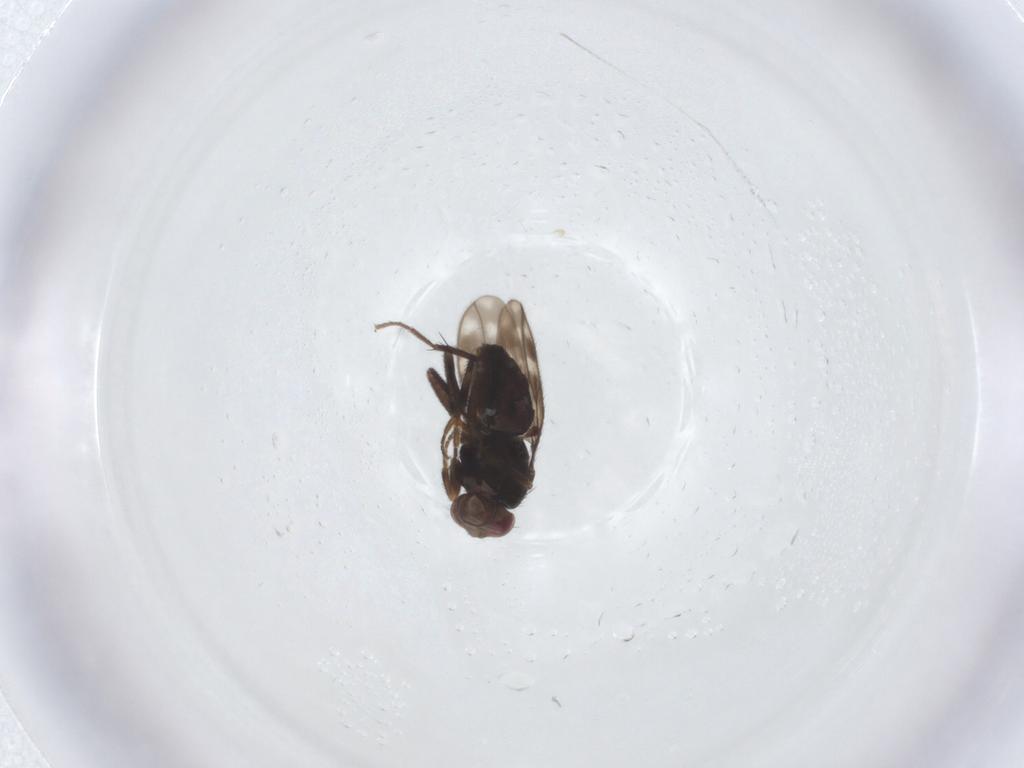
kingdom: Animalia
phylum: Arthropoda
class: Insecta
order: Diptera
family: Sphaeroceridae
